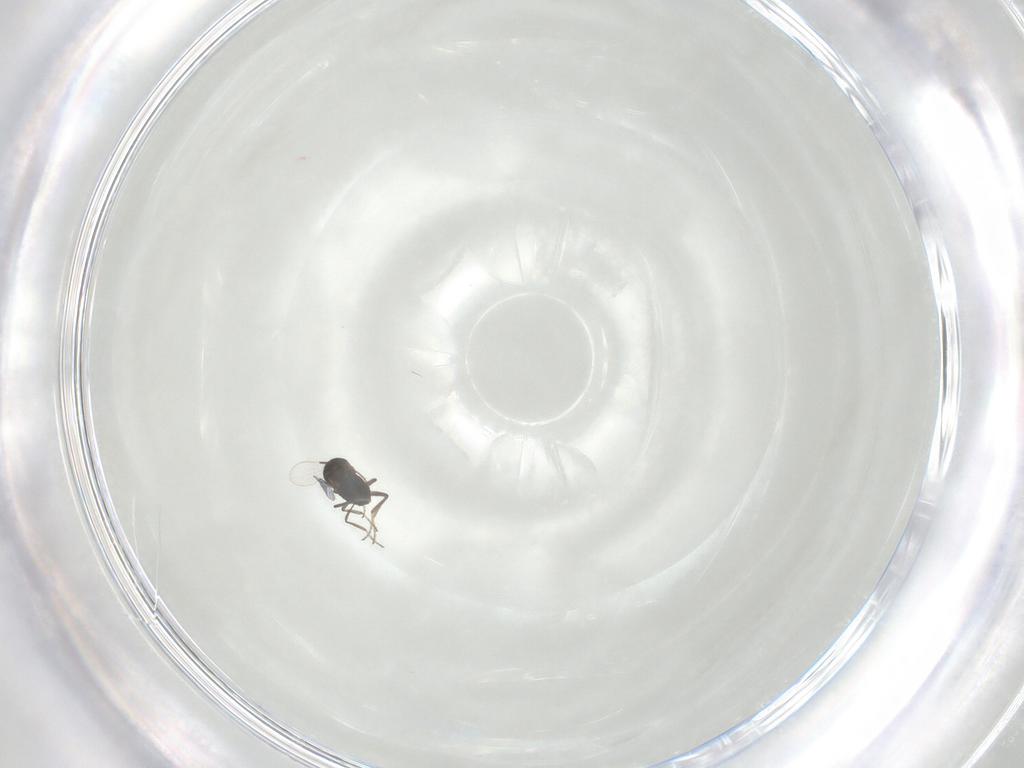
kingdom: Animalia
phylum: Arthropoda
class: Insecta
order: Diptera
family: Ceratopogonidae
